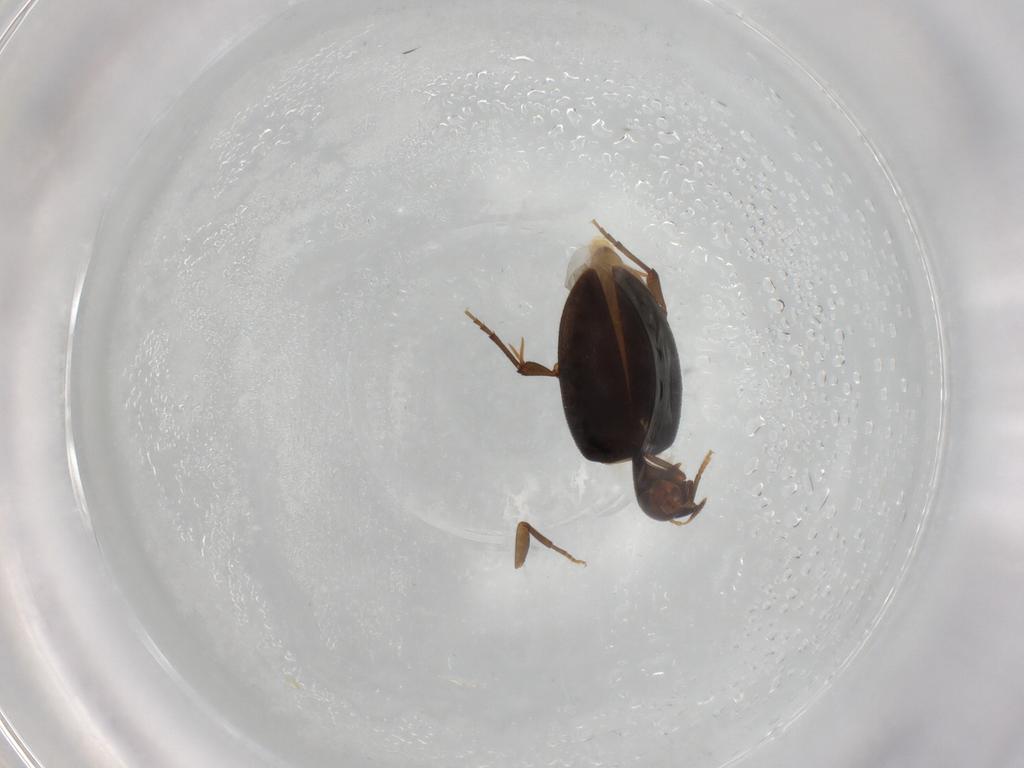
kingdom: Animalia
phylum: Arthropoda
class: Insecta
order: Coleoptera
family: Melandryidae
